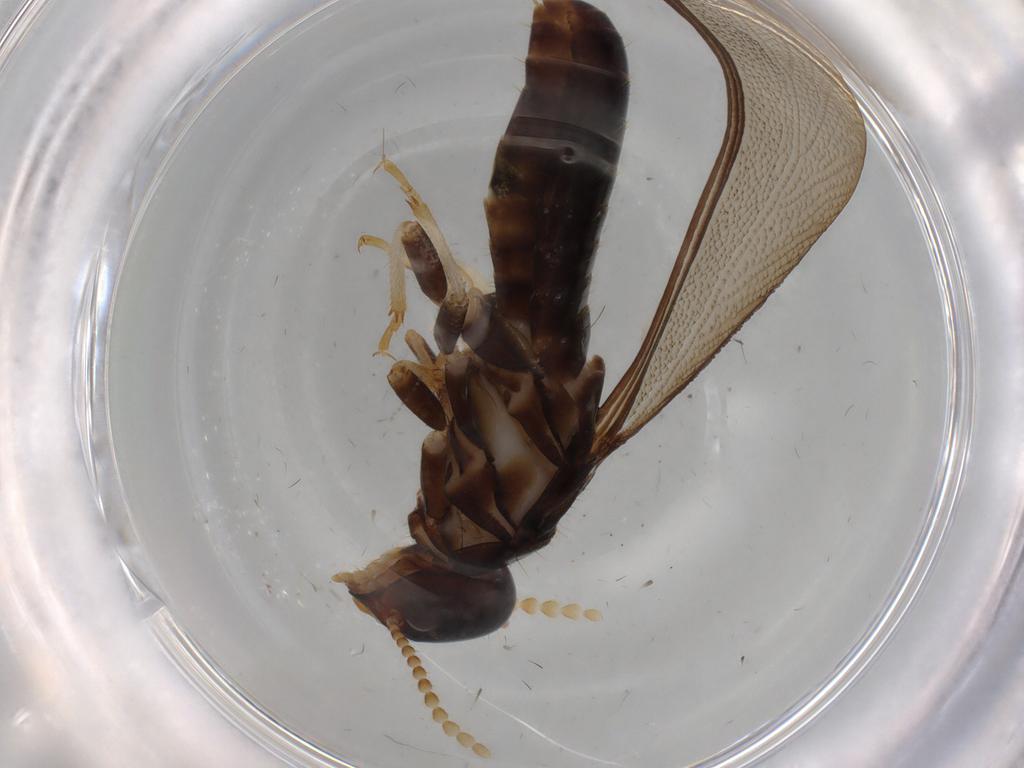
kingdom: Animalia
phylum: Arthropoda
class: Insecta
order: Blattodea
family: Kalotermitidae
